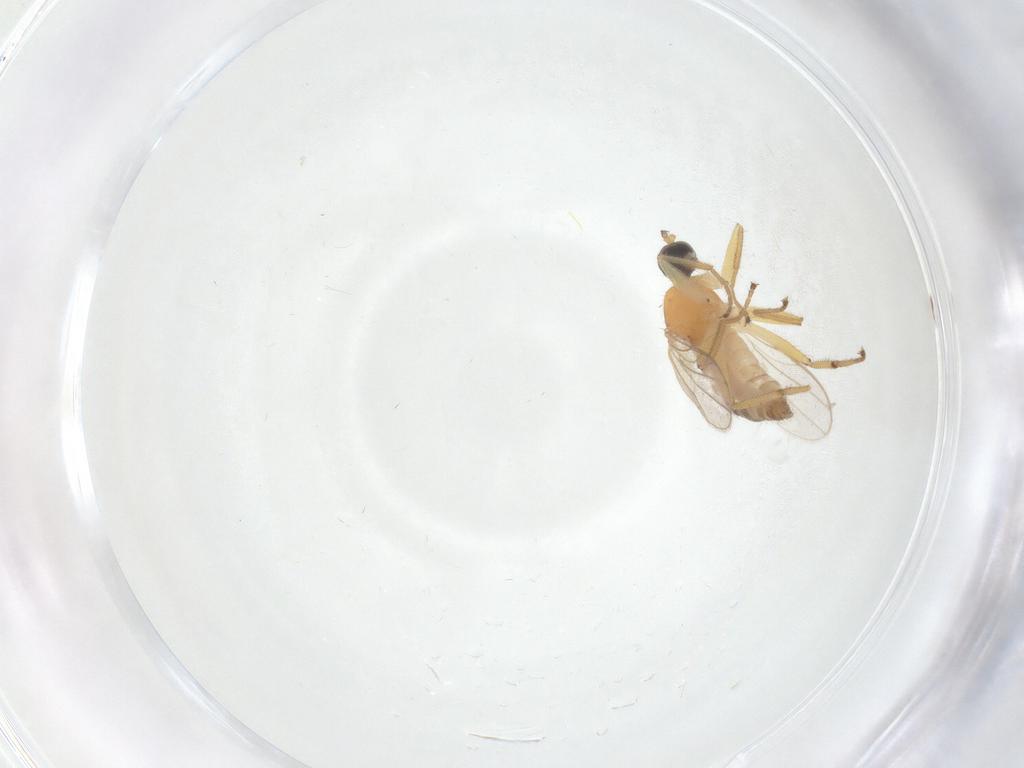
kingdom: Animalia
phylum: Arthropoda
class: Insecta
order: Diptera
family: Hybotidae
